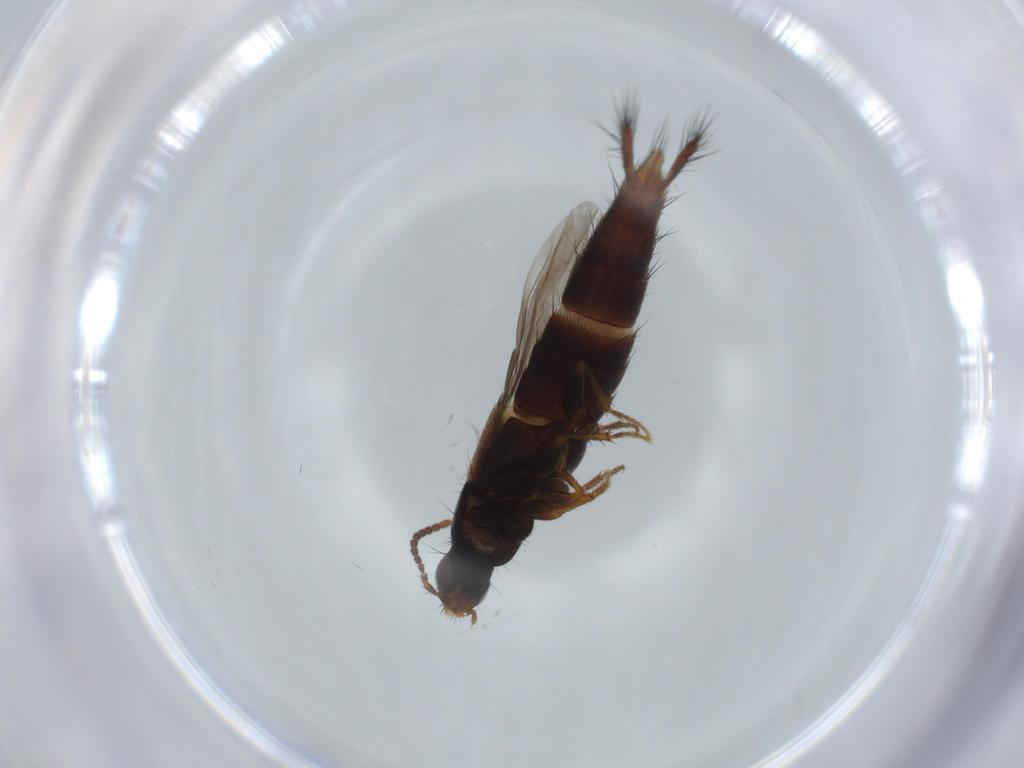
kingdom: Animalia
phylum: Arthropoda
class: Insecta
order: Coleoptera
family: Staphylinidae
